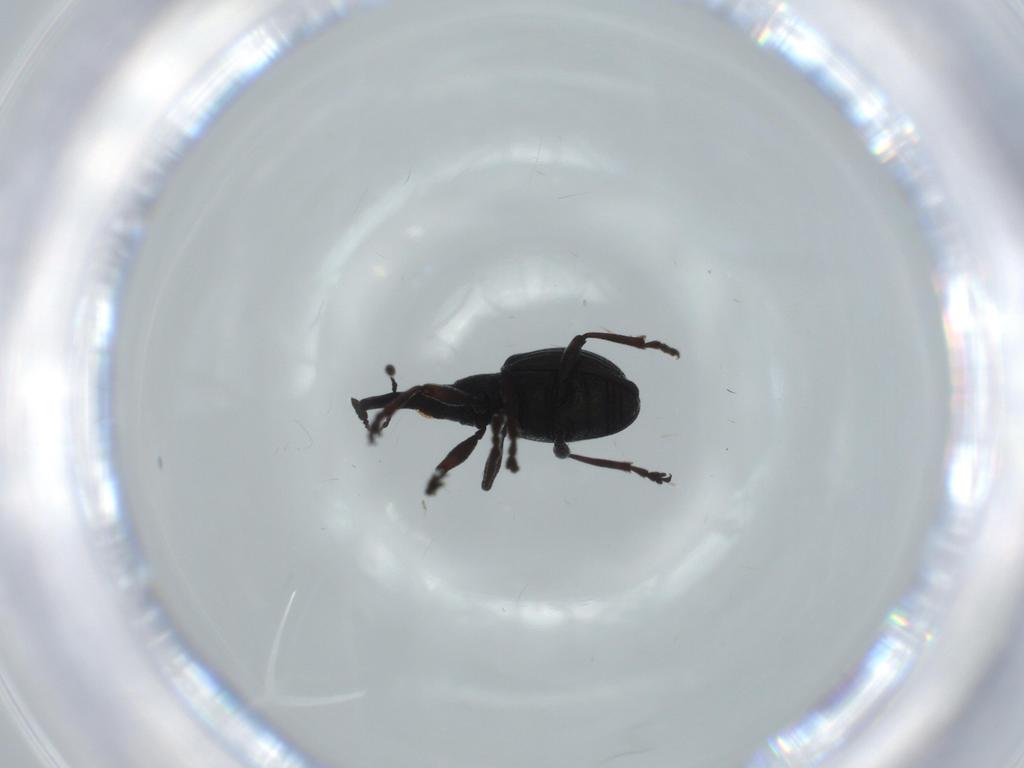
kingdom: Animalia
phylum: Arthropoda
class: Insecta
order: Coleoptera
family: Brentidae
